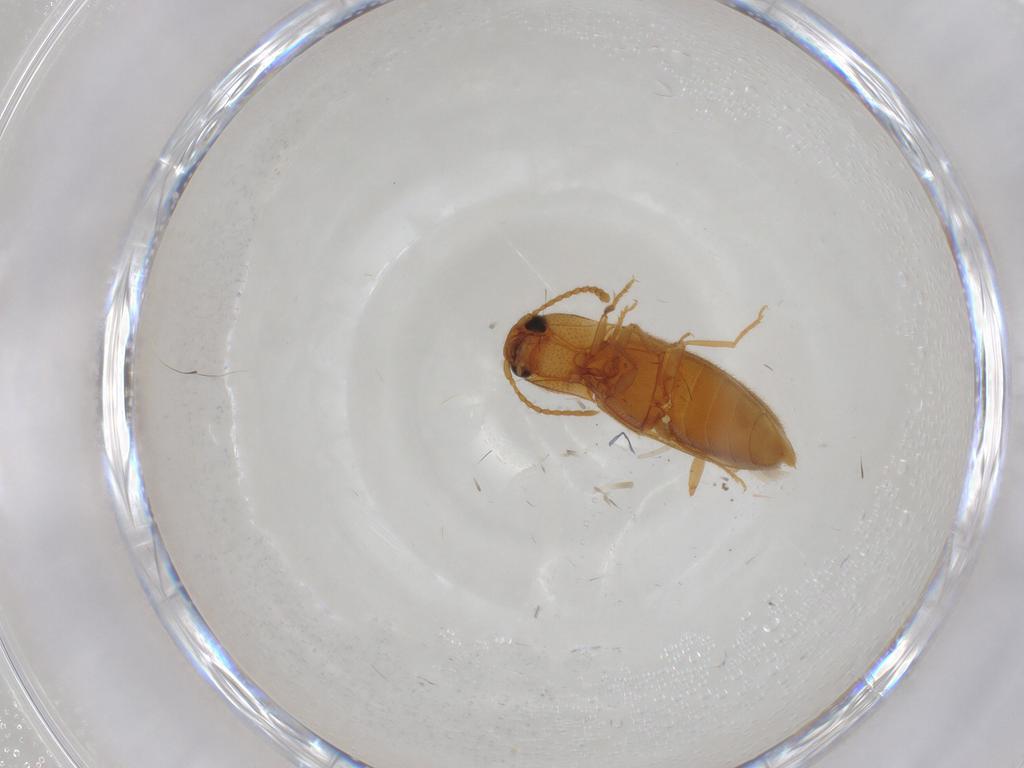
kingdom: Animalia
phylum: Arthropoda
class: Insecta
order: Coleoptera
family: Elateridae
